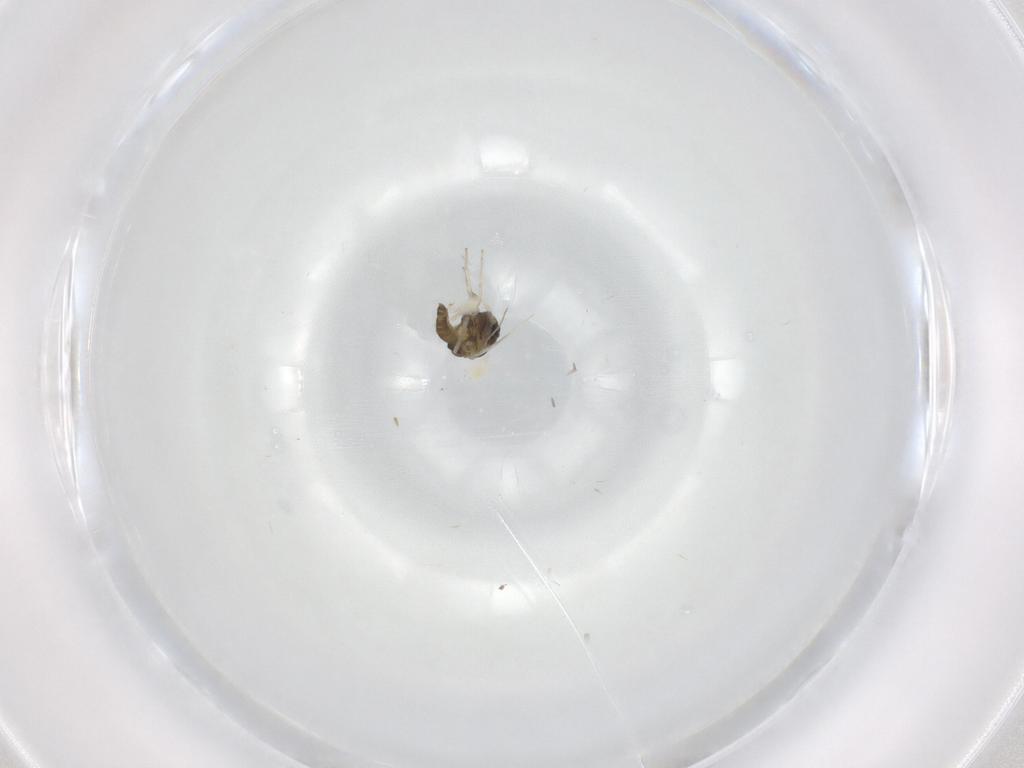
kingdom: Animalia
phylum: Arthropoda
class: Insecta
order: Diptera
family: Chironomidae
